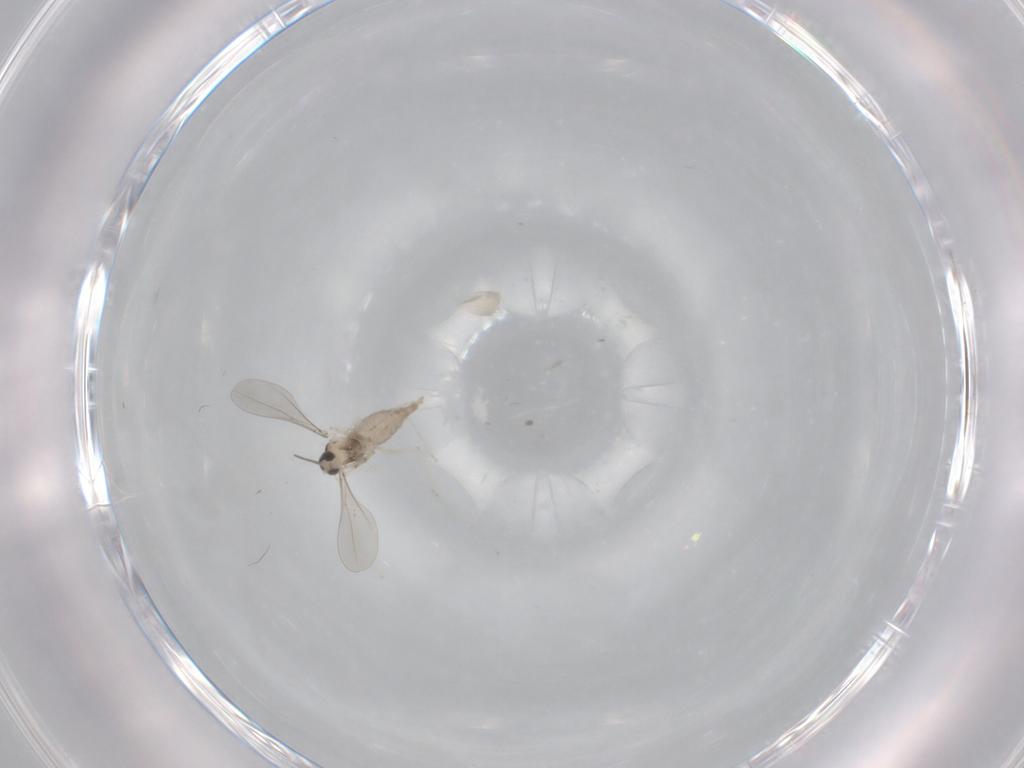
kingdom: Animalia
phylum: Arthropoda
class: Insecta
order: Diptera
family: Cecidomyiidae
